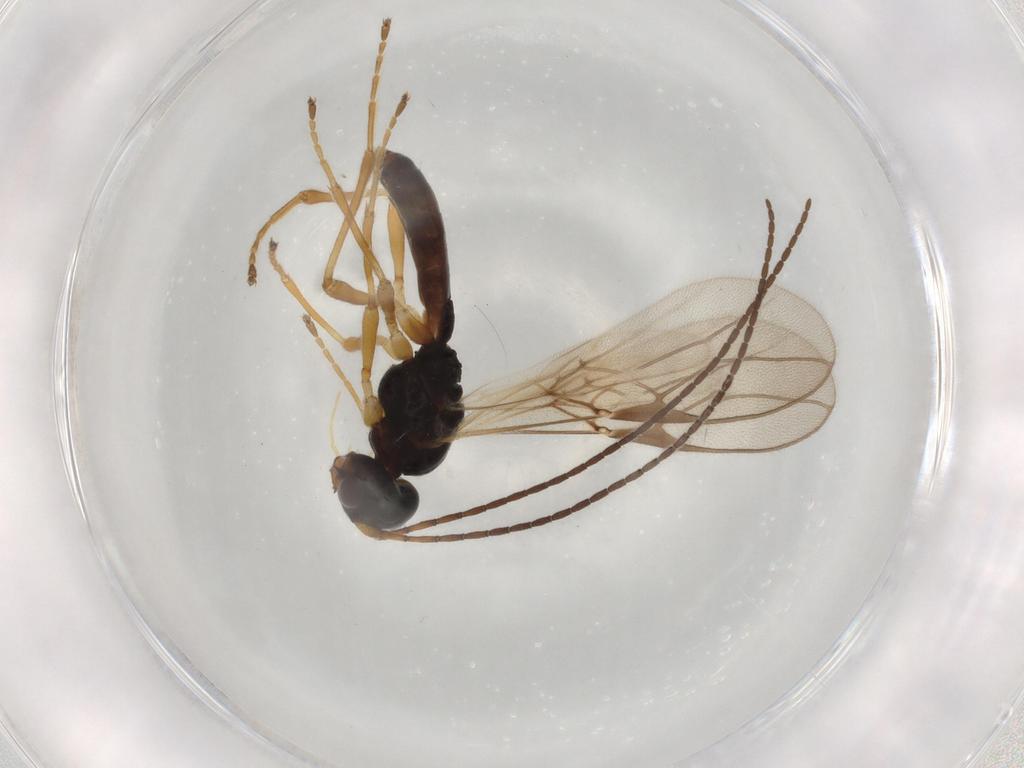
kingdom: Animalia
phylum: Arthropoda
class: Insecta
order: Hymenoptera
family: Braconidae
